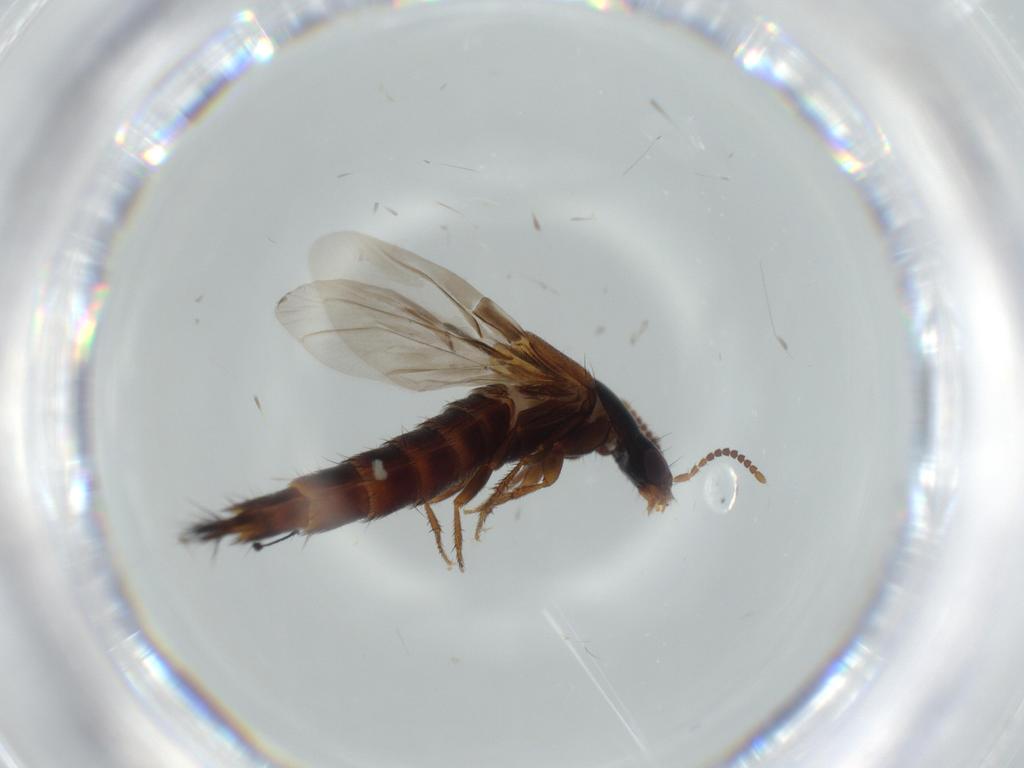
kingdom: Animalia
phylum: Arthropoda
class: Insecta
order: Coleoptera
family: Staphylinidae
